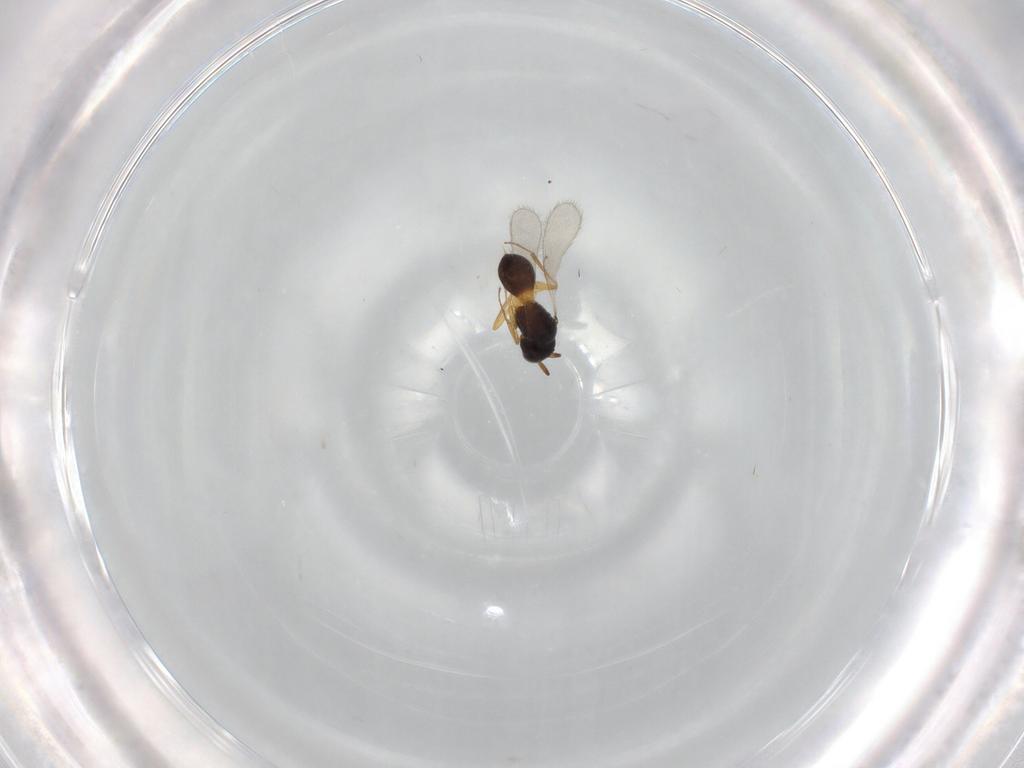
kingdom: Animalia
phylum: Arthropoda
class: Insecta
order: Hymenoptera
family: Scelionidae
